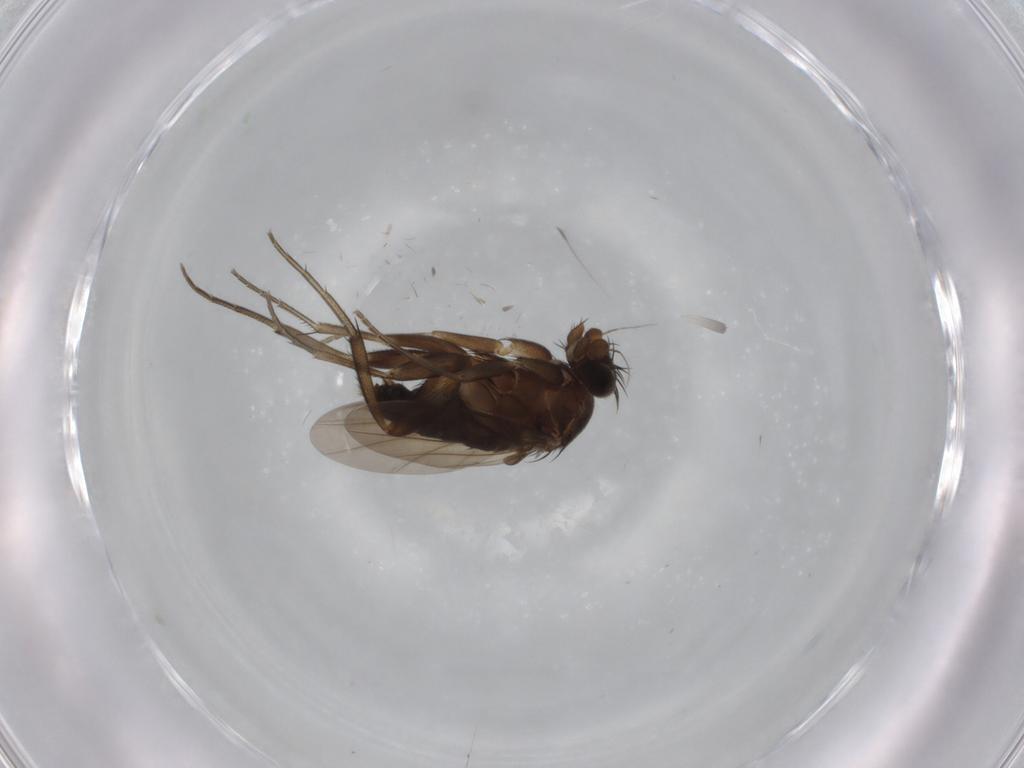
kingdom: Animalia
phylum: Arthropoda
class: Insecta
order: Diptera
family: Phoridae
